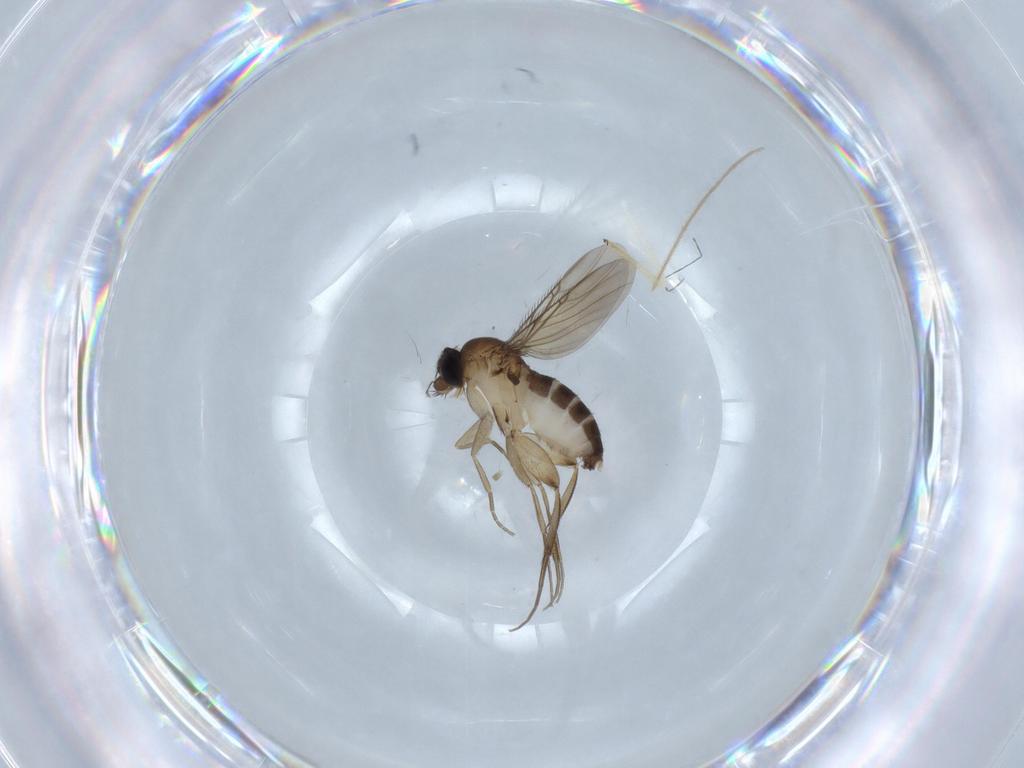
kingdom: Animalia
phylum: Arthropoda
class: Insecta
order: Diptera
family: Phoridae
